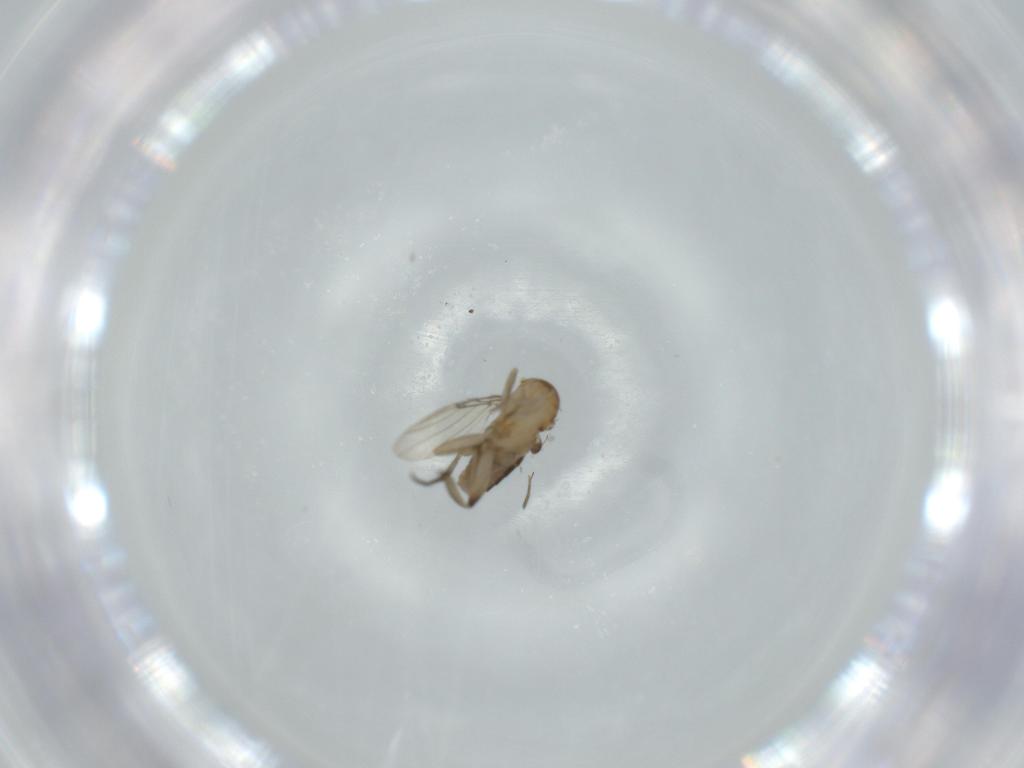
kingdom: Animalia
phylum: Arthropoda
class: Insecta
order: Diptera
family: Phoridae
